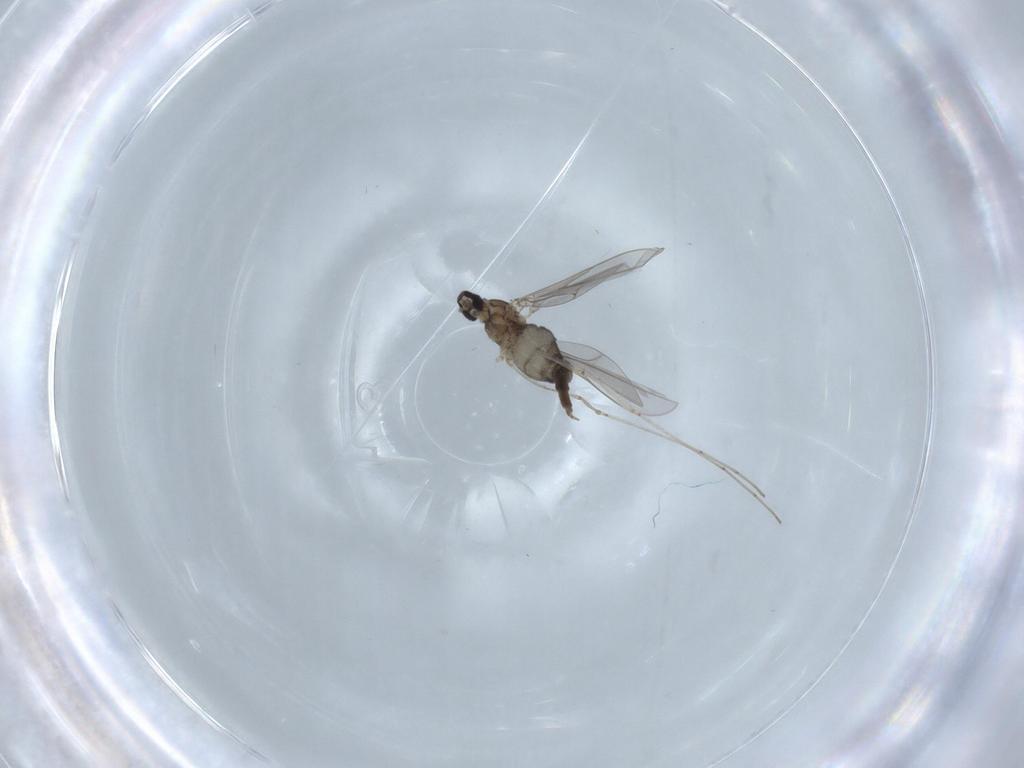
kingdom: Animalia
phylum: Arthropoda
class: Insecta
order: Diptera
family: Cecidomyiidae
